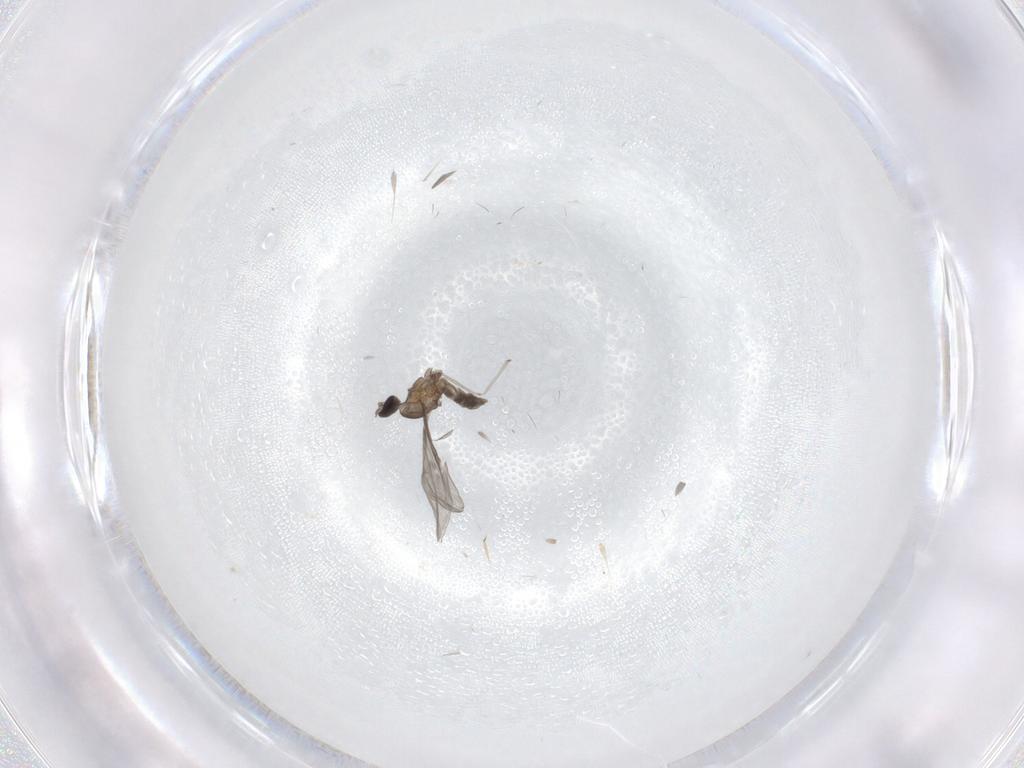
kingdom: Animalia
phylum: Arthropoda
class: Insecta
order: Diptera
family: Cecidomyiidae
